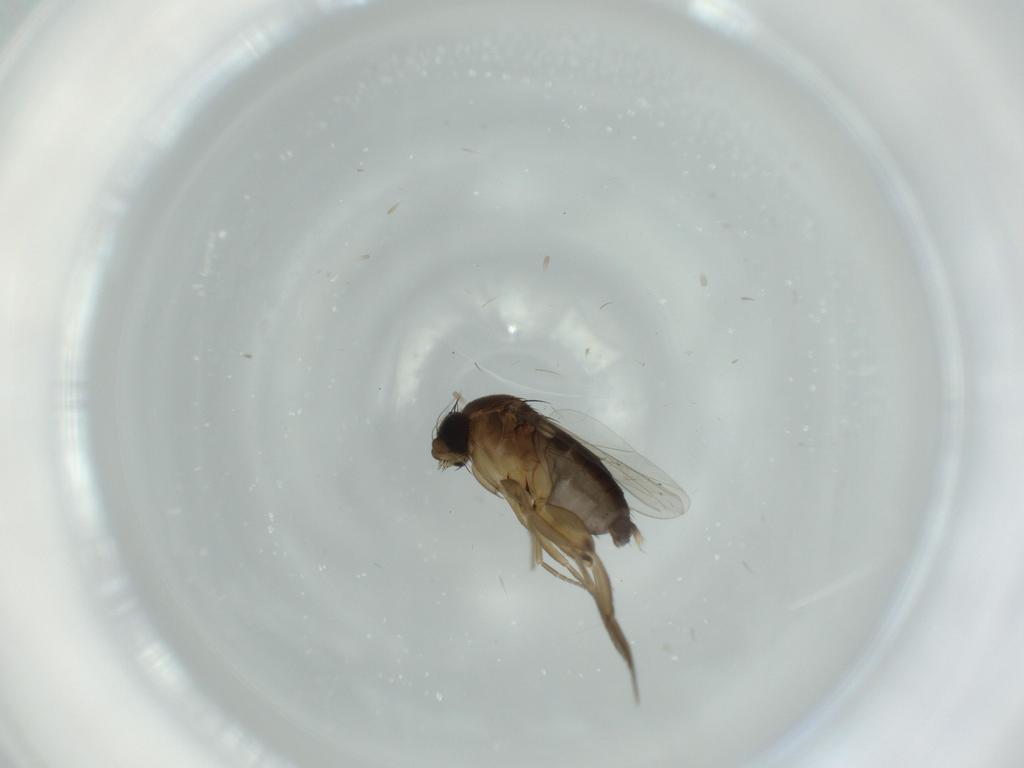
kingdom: Animalia
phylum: Arthropoda
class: Insecta
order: Diptera
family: Phoridae
